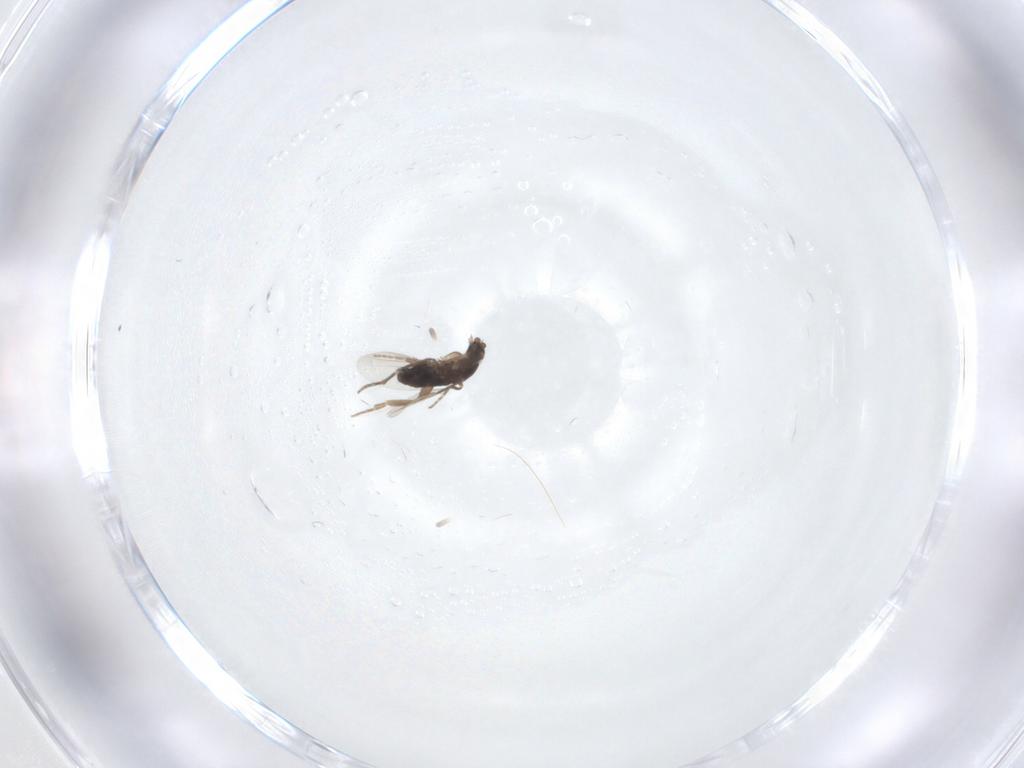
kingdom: Animalia
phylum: Arthropoda
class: Insecta
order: Diptera
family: Phoridae
